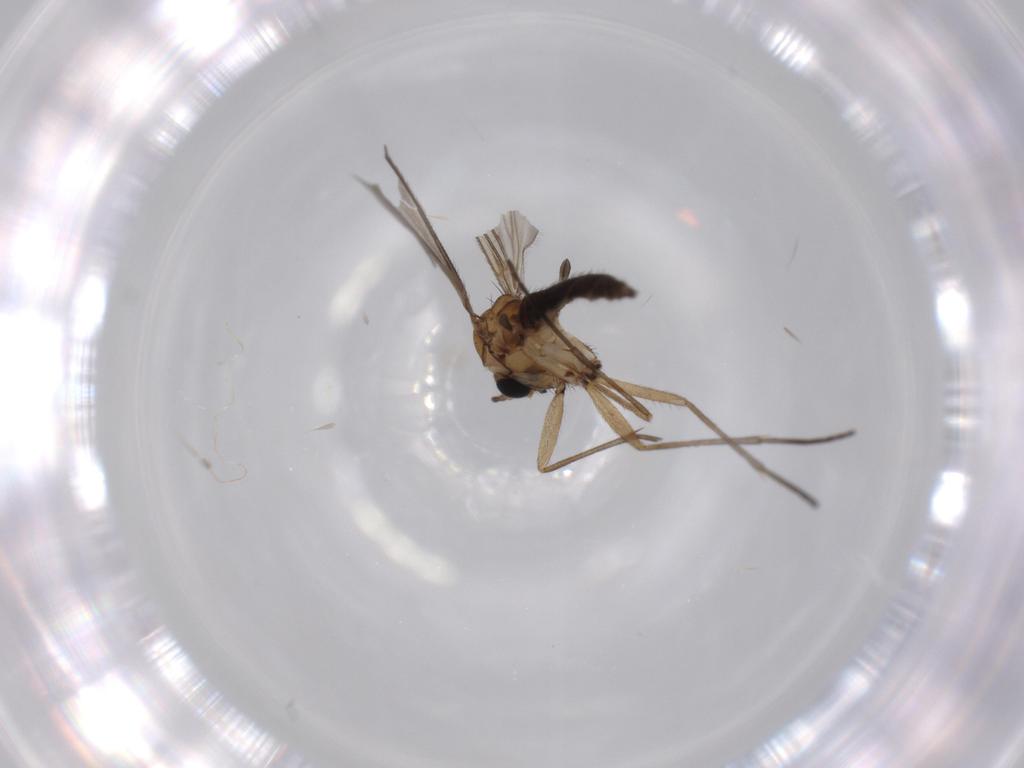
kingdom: Animalia
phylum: Arthropoda
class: Insecta
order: Diptera
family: Sciaridae
